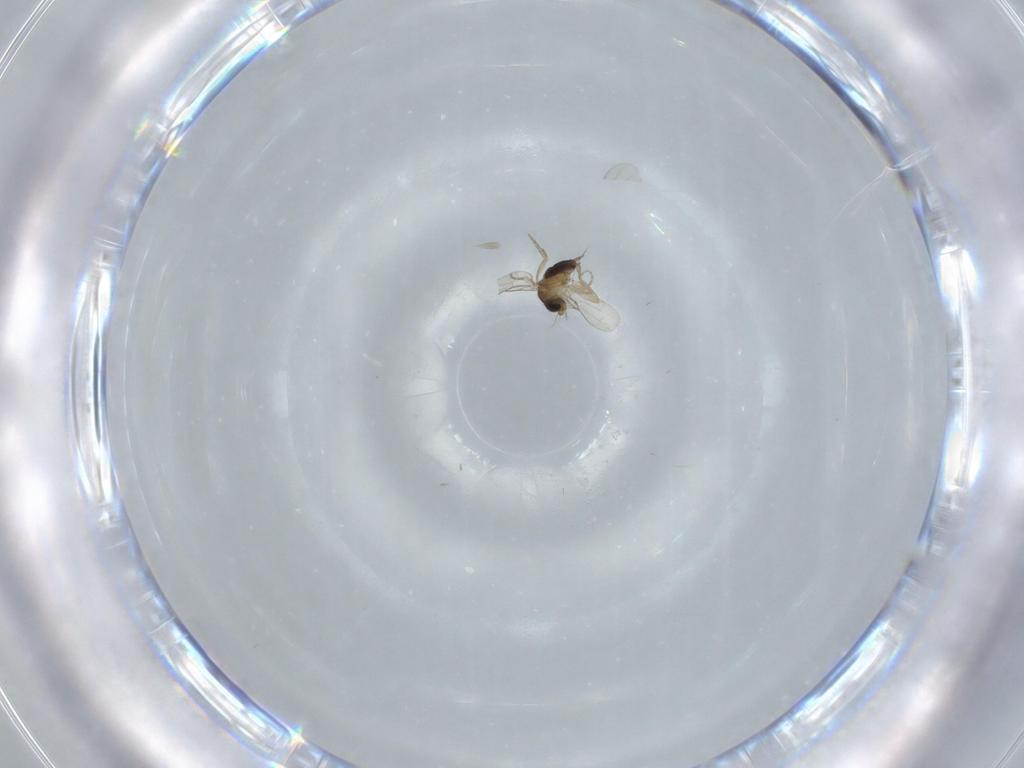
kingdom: Animalia
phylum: Arthropoda
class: Insecta
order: Diptera
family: Phoridae
